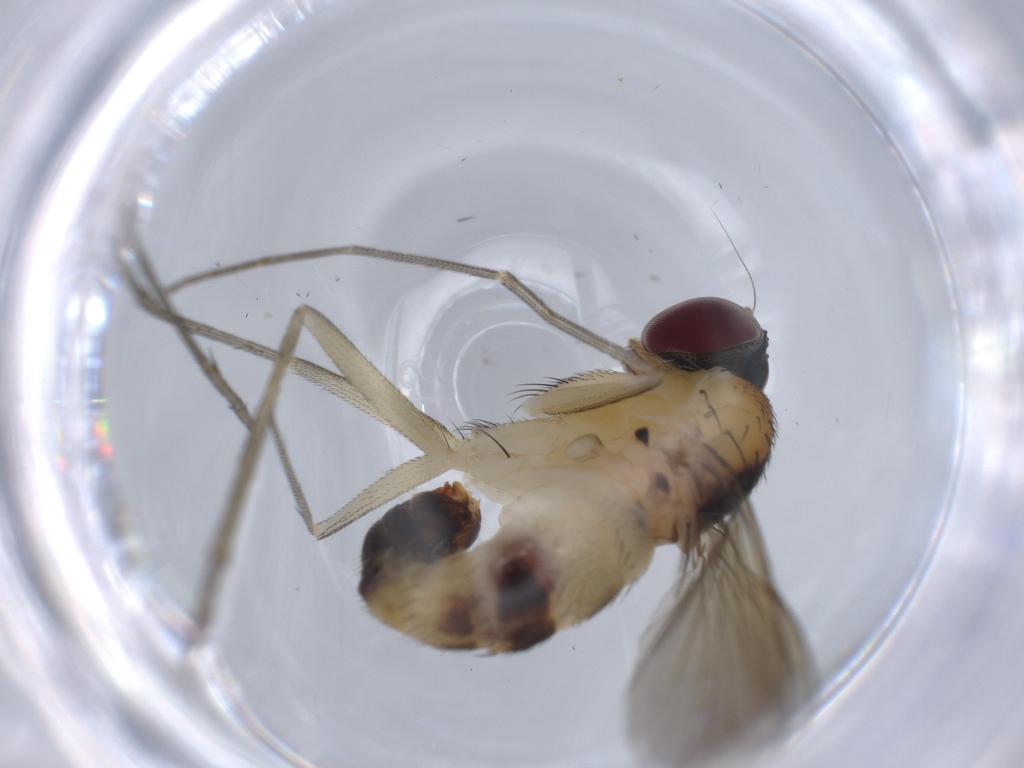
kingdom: Animalia
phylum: Arthropoda
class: Insecta
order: Diptera
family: Dolichopodidae
